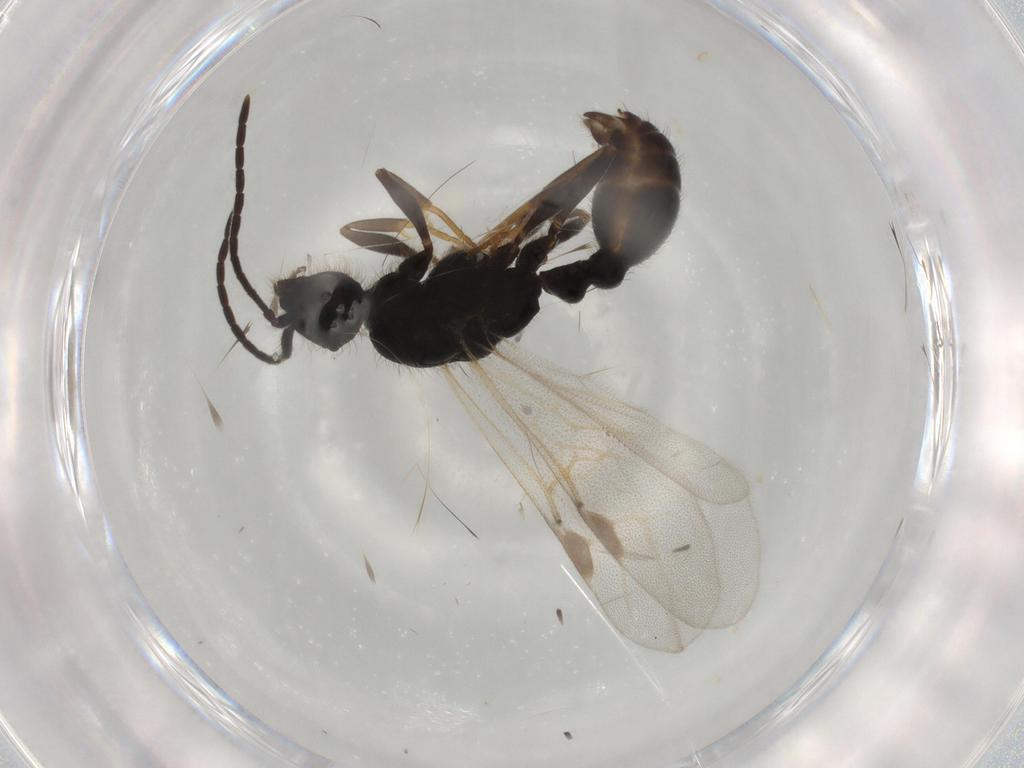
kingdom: Animalia
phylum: Arthropoda
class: Insecta
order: Hymenoptera
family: Formicidae
